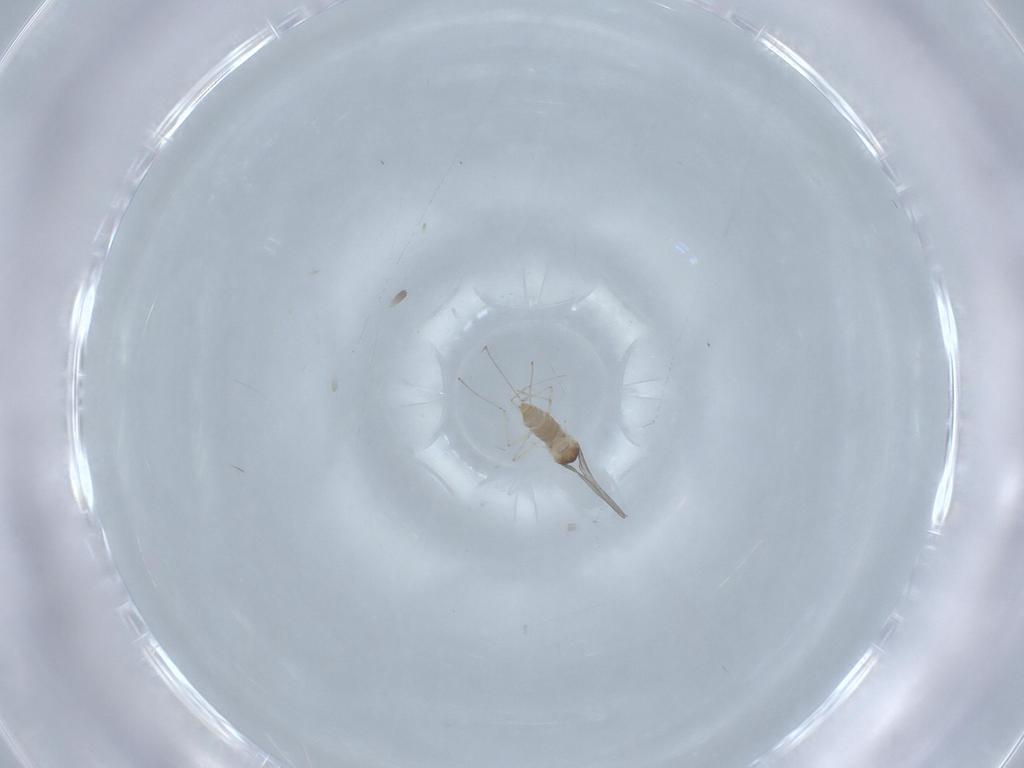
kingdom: Animalia
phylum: Arthropoda
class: Insecta
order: Diptera
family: Cecidomyiidae
